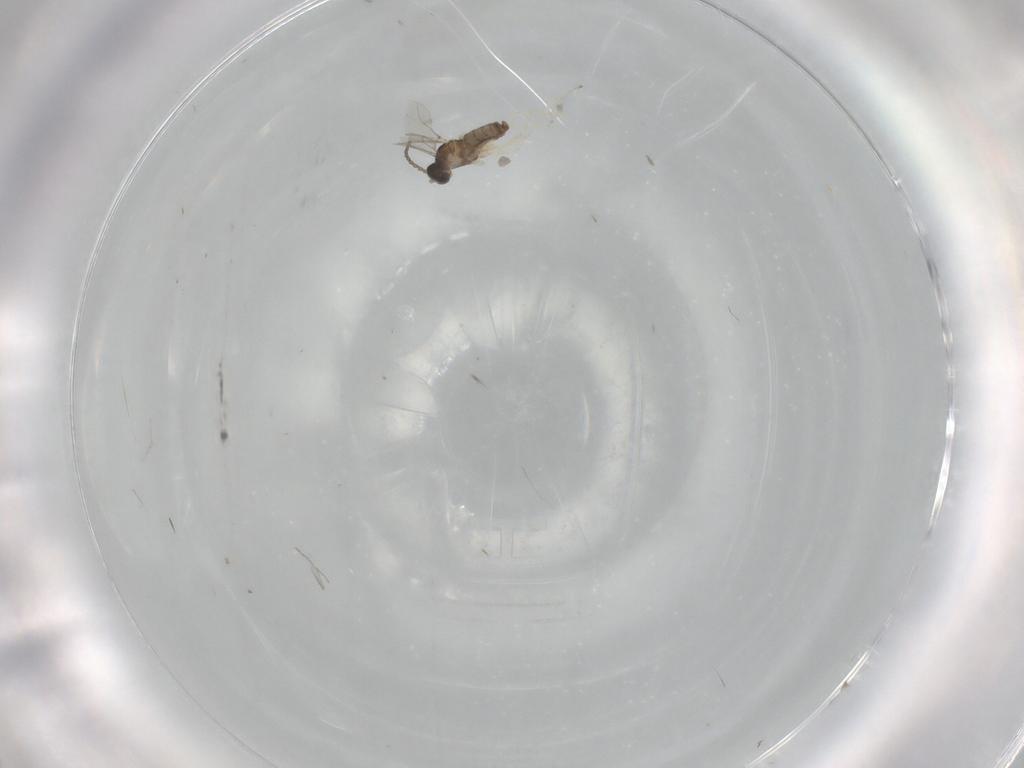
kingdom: Animalia
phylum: Arthropoda
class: Insecta
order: Diptera
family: Cecidomyiidae
